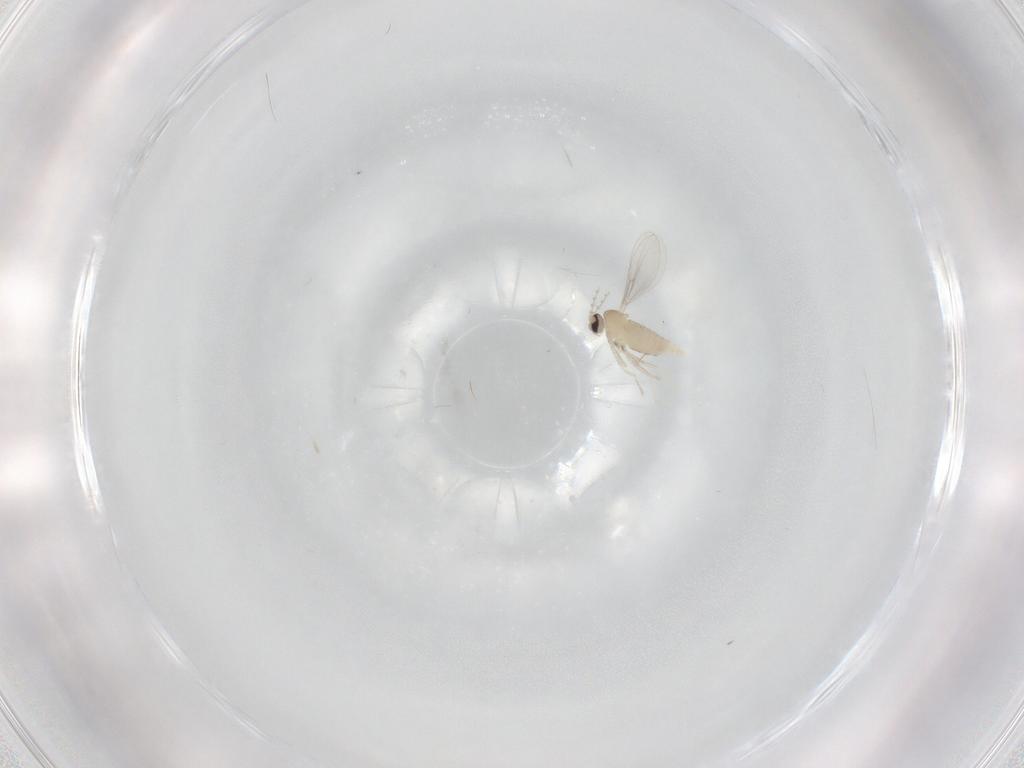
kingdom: Animalia
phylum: Arthropoda
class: Insecta
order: Diptera
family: Cecidomyiidae
